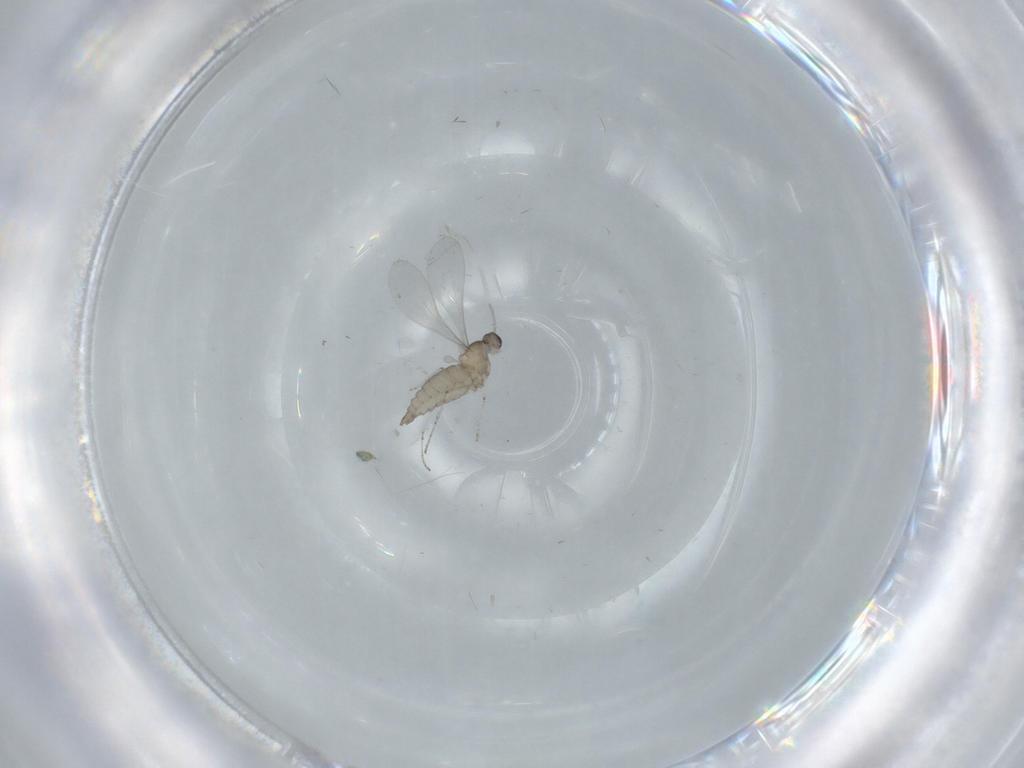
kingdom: Animalia
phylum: Arthropoda
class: Insecta
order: Diptera
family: Cecidomyiidae
